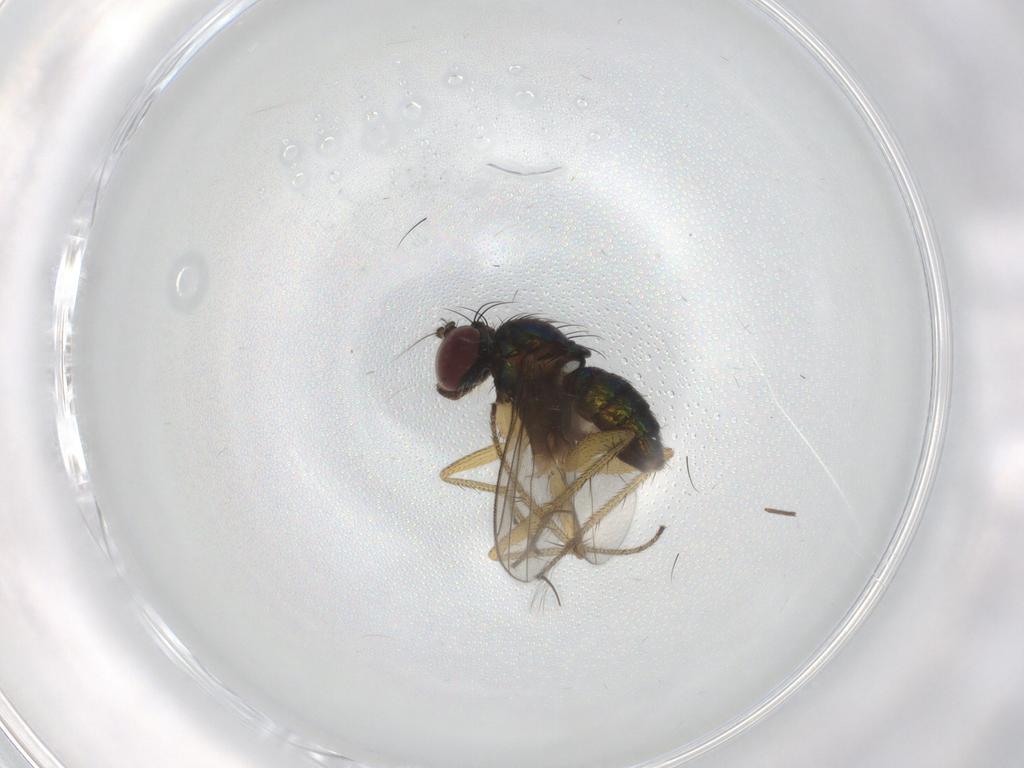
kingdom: Animalia
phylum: Arthropoda
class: Insecta
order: Diptera
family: Dolichopodidae
